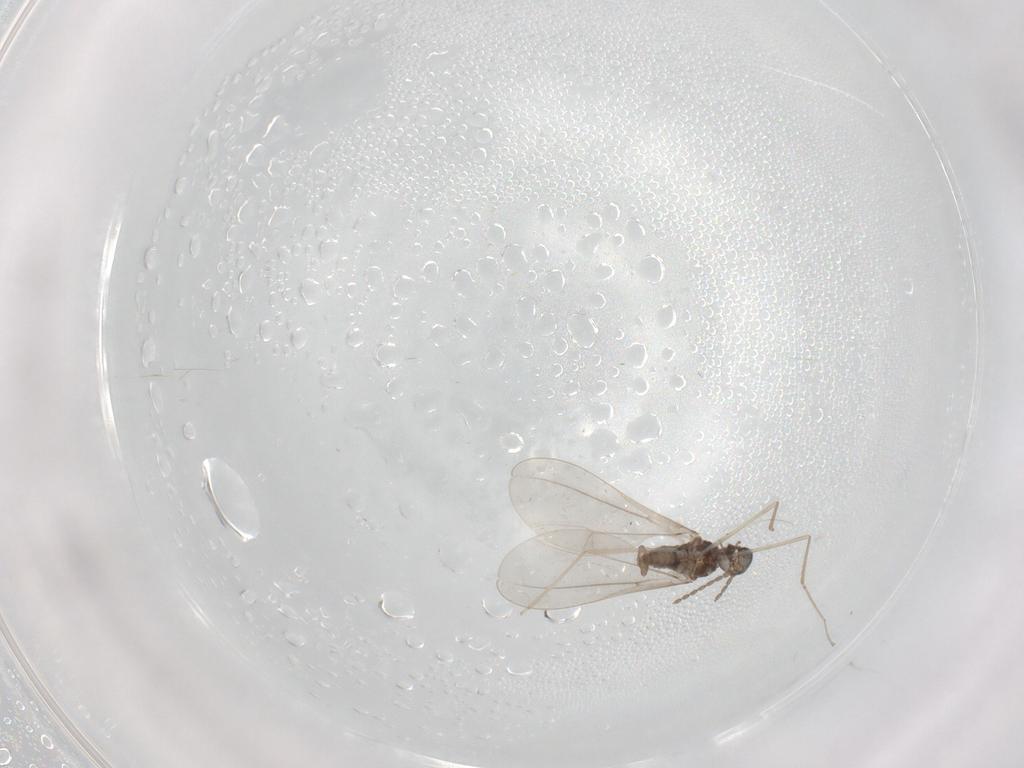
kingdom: Animalia
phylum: Arthropoda
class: Insecta
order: Diptera
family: Cecidomyiidae
